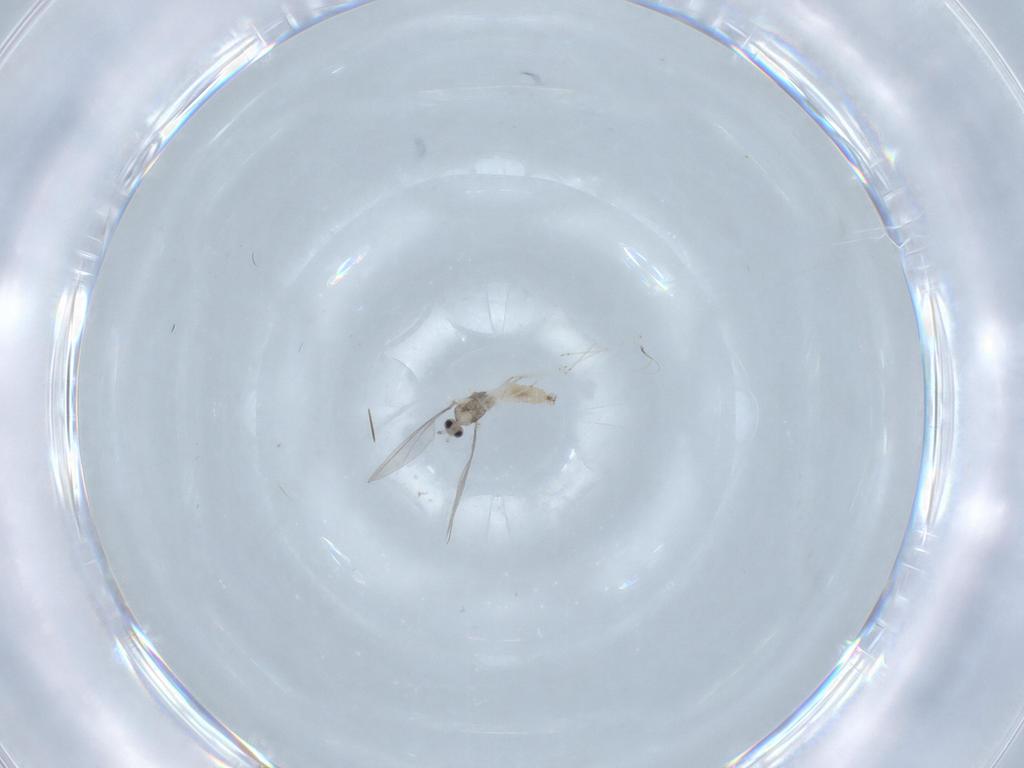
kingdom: Animalia
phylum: Arthropoda
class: Insecta
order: Diptera
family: Cecidomyiidae
